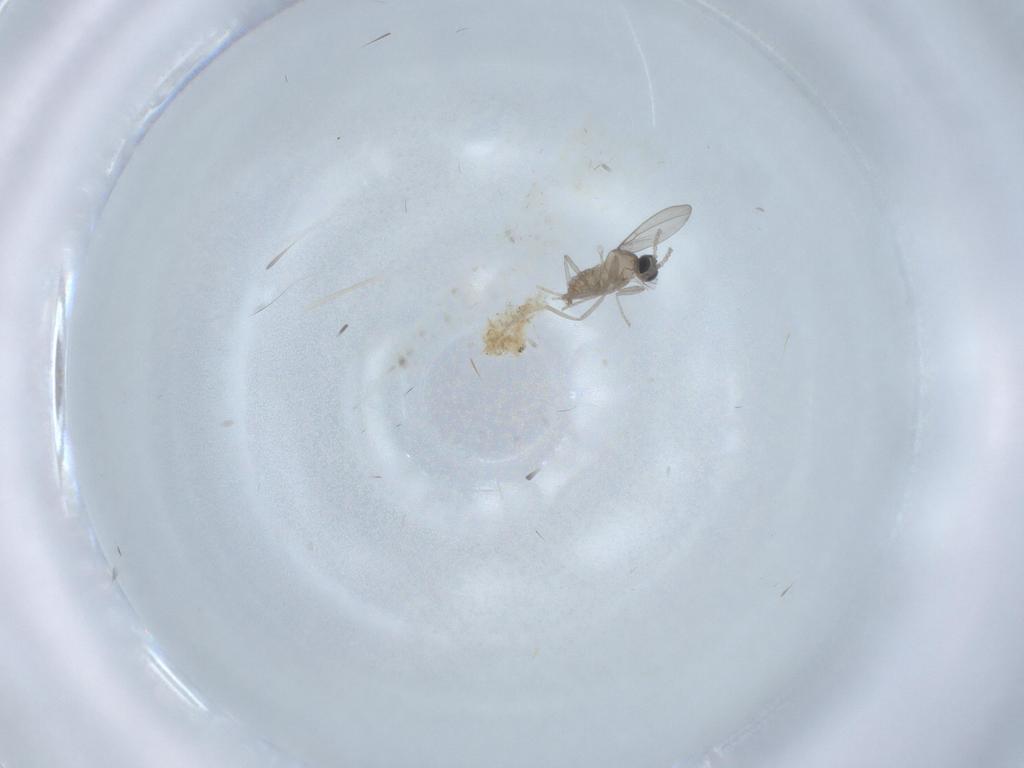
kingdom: Animalia
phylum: Arthropoda
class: Insecta
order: Diptera
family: Cecidomyiidae
